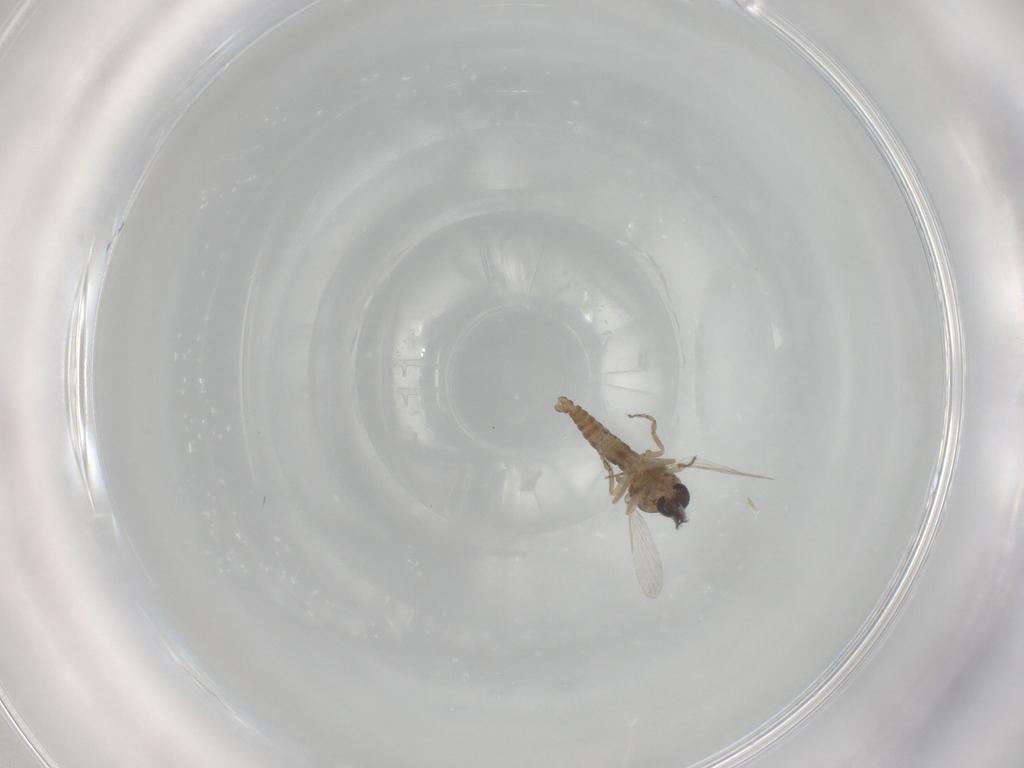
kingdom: Animalia
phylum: Arthropoda
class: Insecta
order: Diptera
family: Ceratopogonidae
